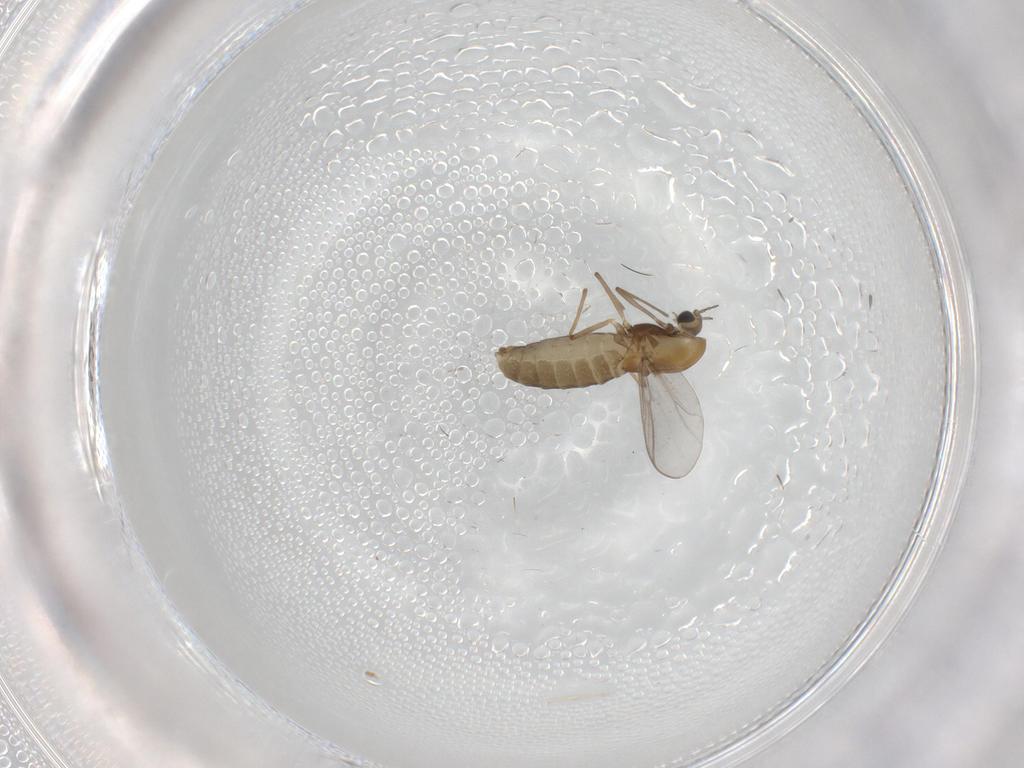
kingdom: Animalia
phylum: Arthropoda
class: Insecta
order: Diptera
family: Chironomidae
